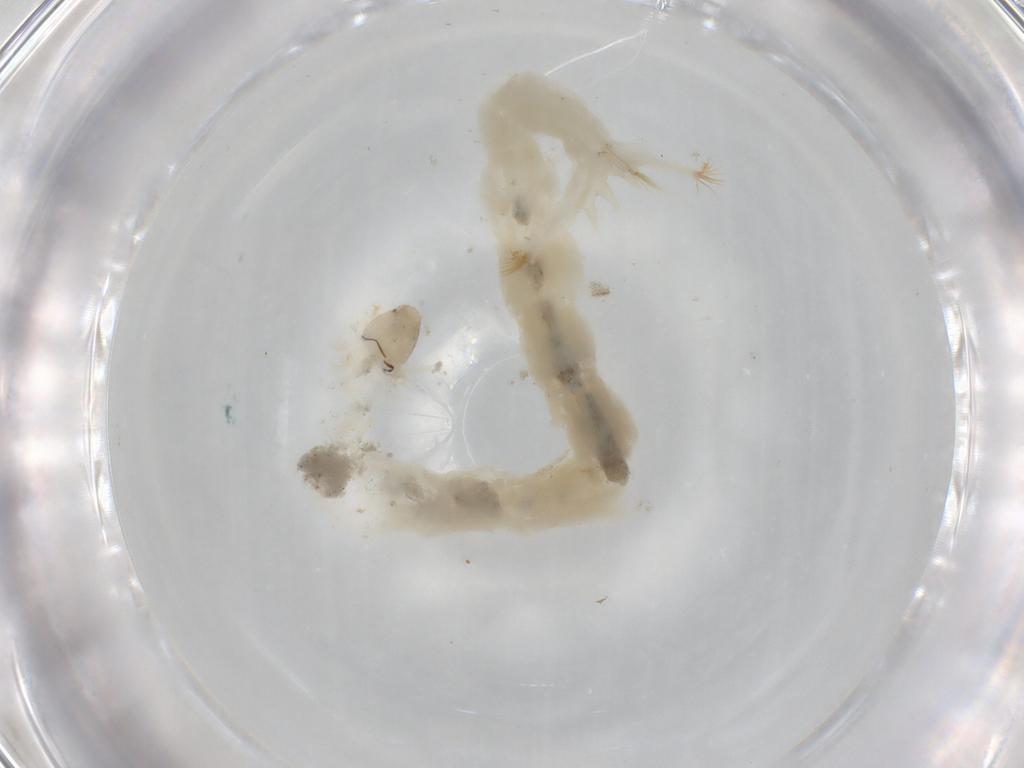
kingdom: Animalia
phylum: Arthropoda
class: Insecta
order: Diptera
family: Chironomidae
